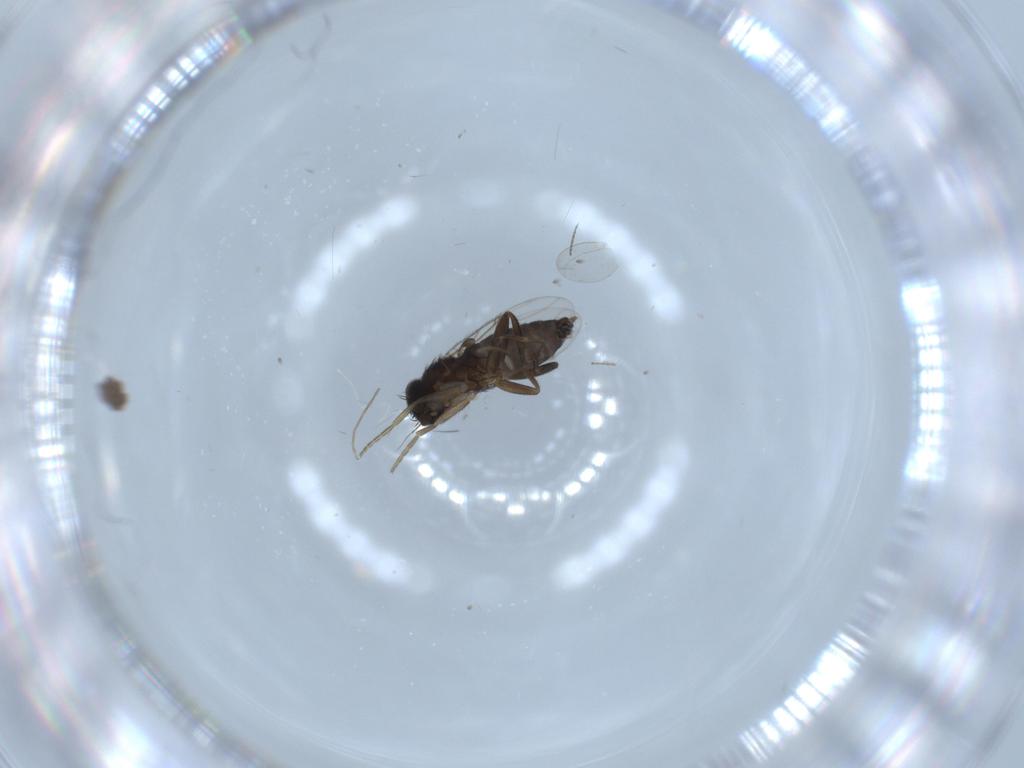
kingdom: Animalia
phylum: Arthropoda
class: Insecta
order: Diptera
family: Phoridae
